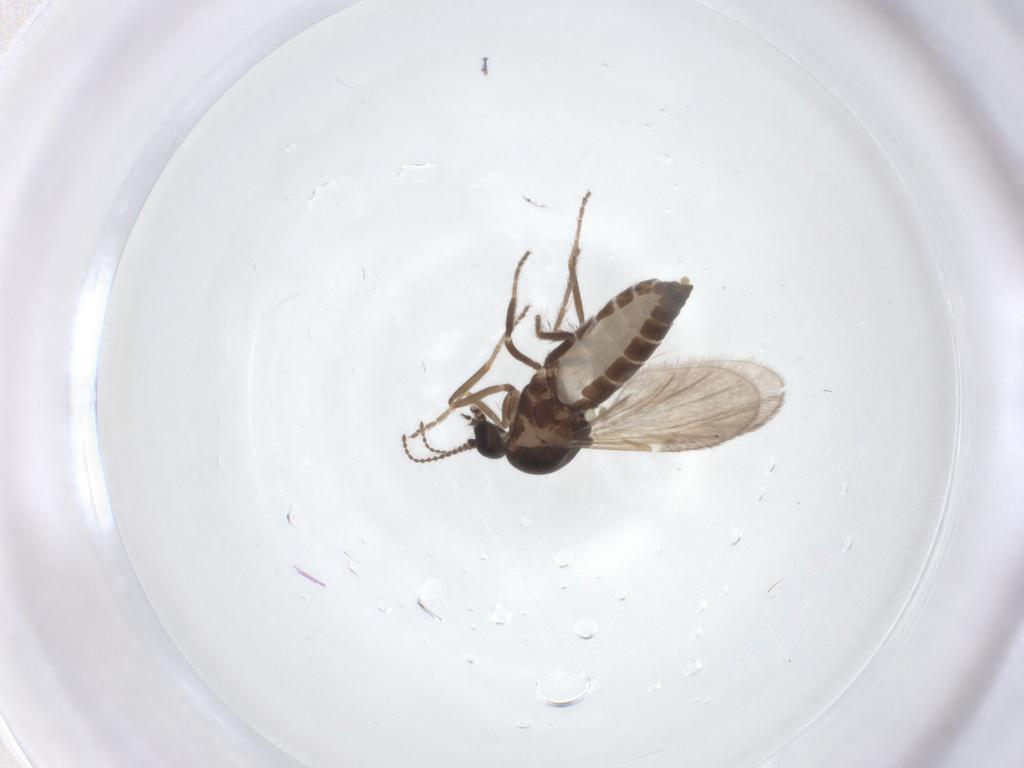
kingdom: Animalia
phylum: Arthropoda
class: Insecta
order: Diptera
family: Ceratopogonidae
